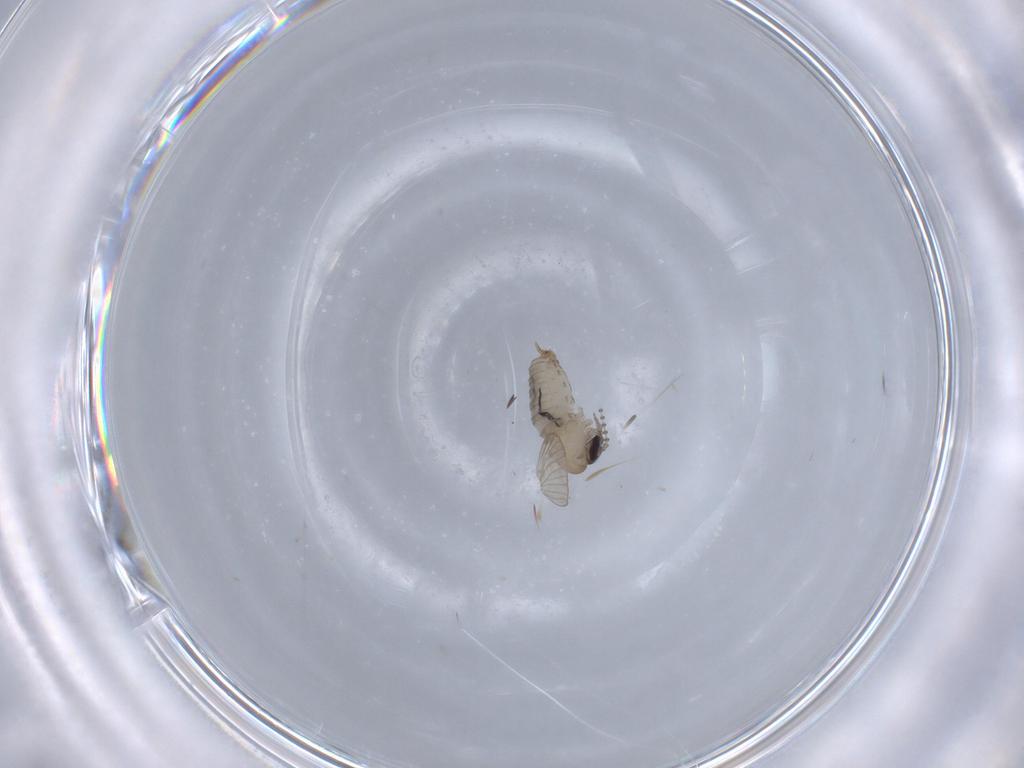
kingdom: Animalia
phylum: Arthropoda
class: Insecta
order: Diptera
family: Psychodidae
